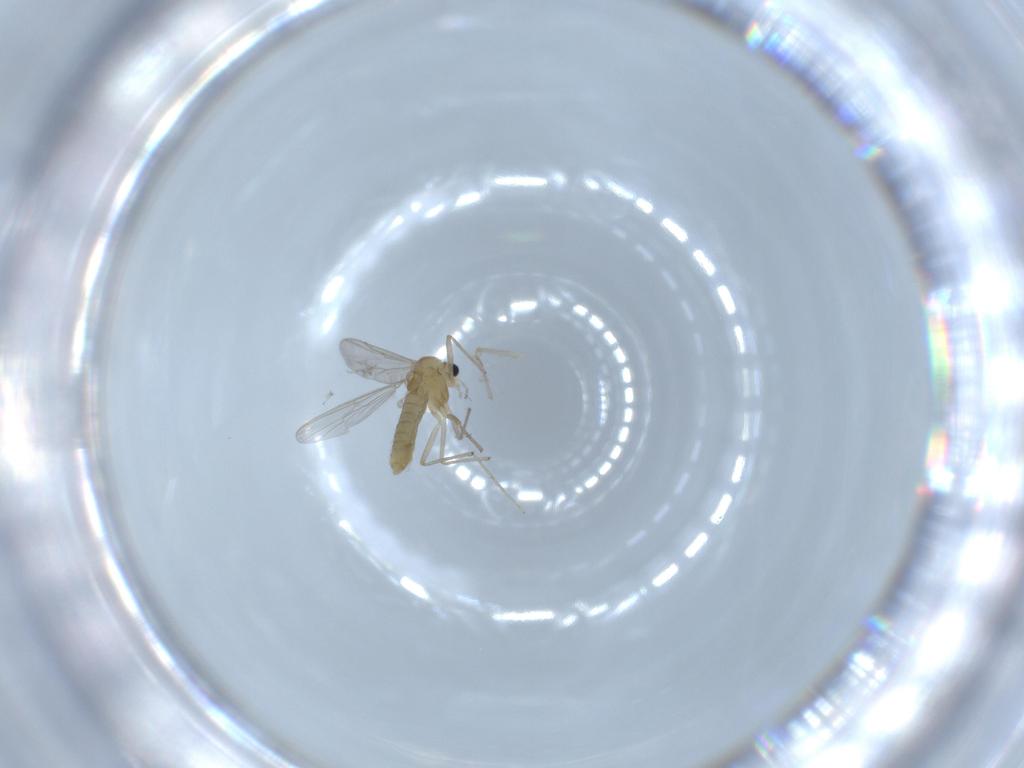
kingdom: Animalia
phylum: Arthropoda
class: Insecta
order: Diptera
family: Chironomidae
